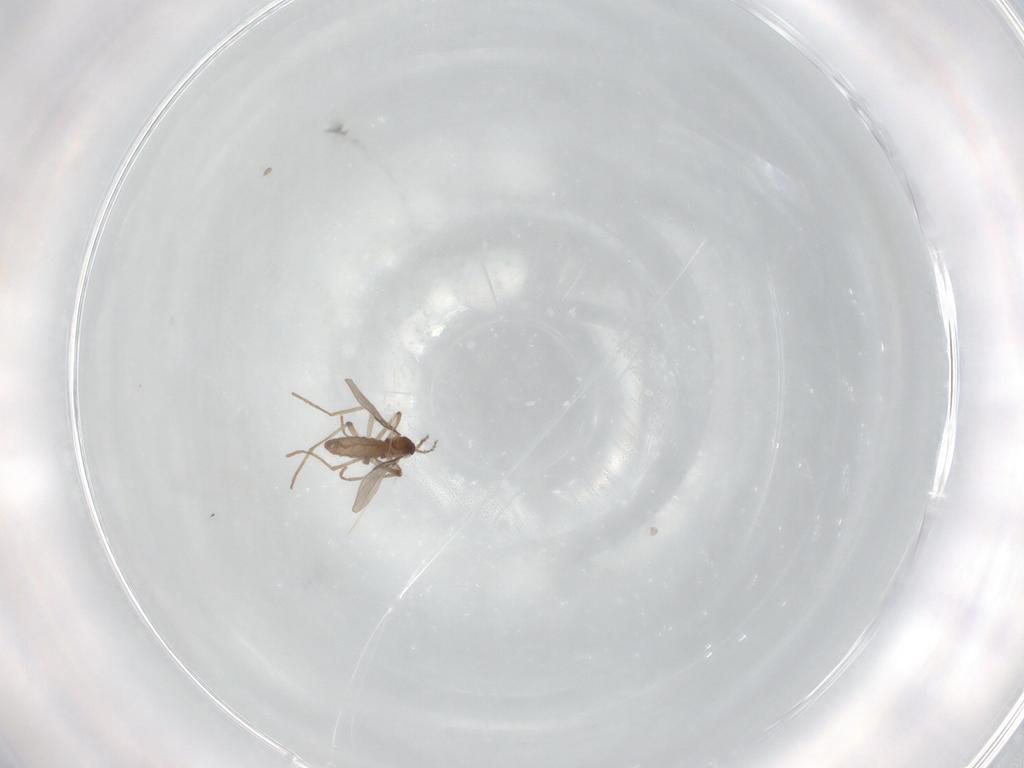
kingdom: Animalia
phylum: Arthropoda
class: Insecta
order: Diptera
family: Cecidomyiidae
